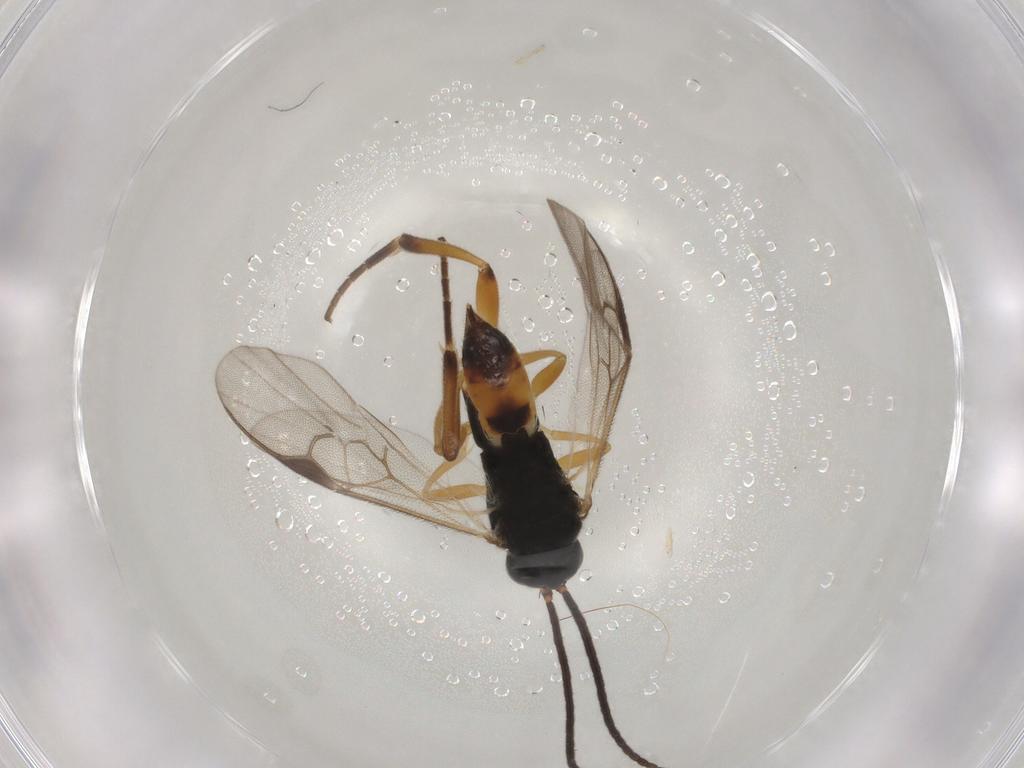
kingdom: Animalia
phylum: Arthropoda
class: Insecta
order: Hymenoptera
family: Braconidae
